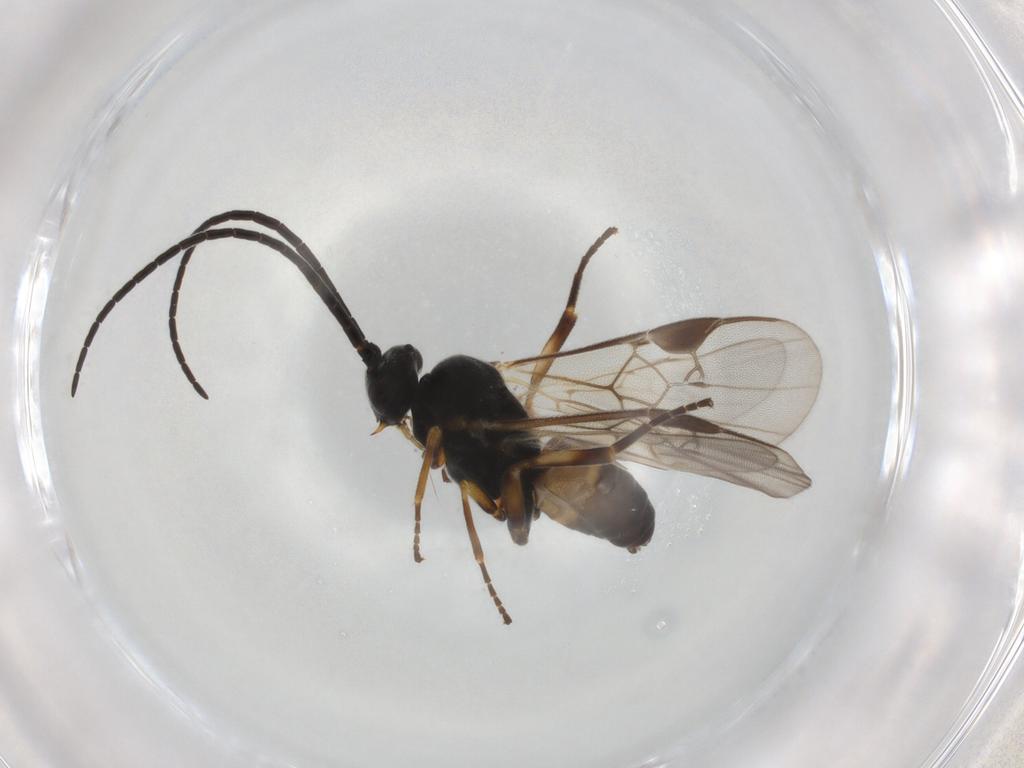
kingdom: Animalia
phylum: Arthropoda
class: Insecta
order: Hymenoptera
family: Braconidae
